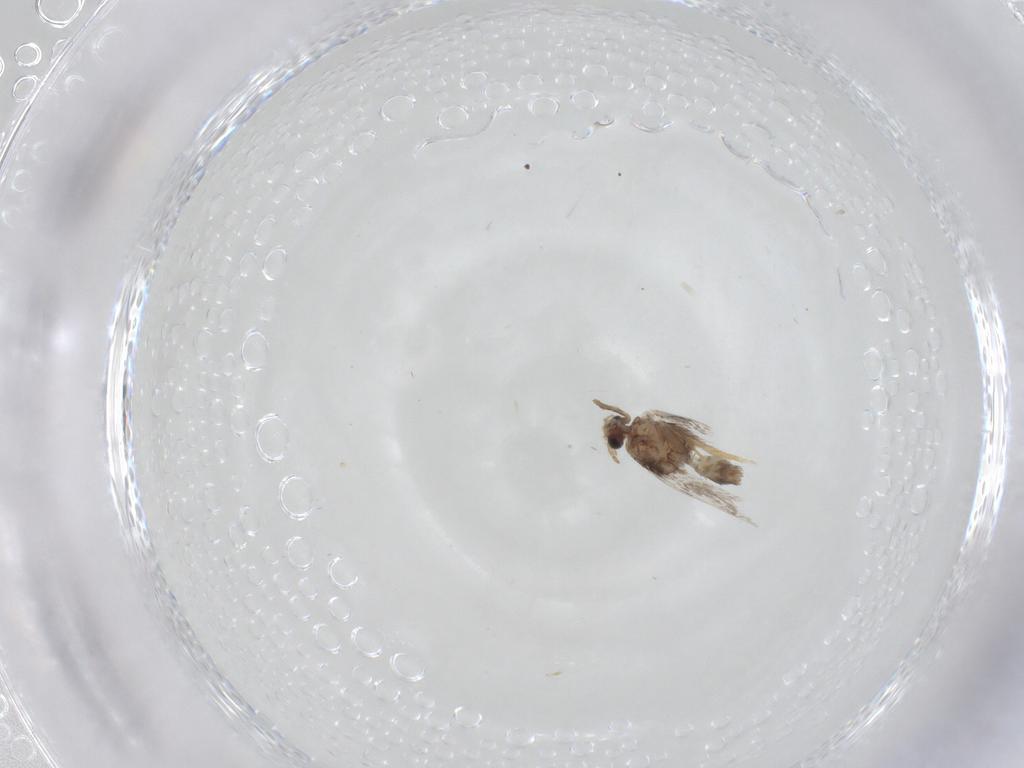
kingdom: Animalia
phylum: Arthropoda
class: Insecta
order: Lepidoptera
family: Nepticulidae
